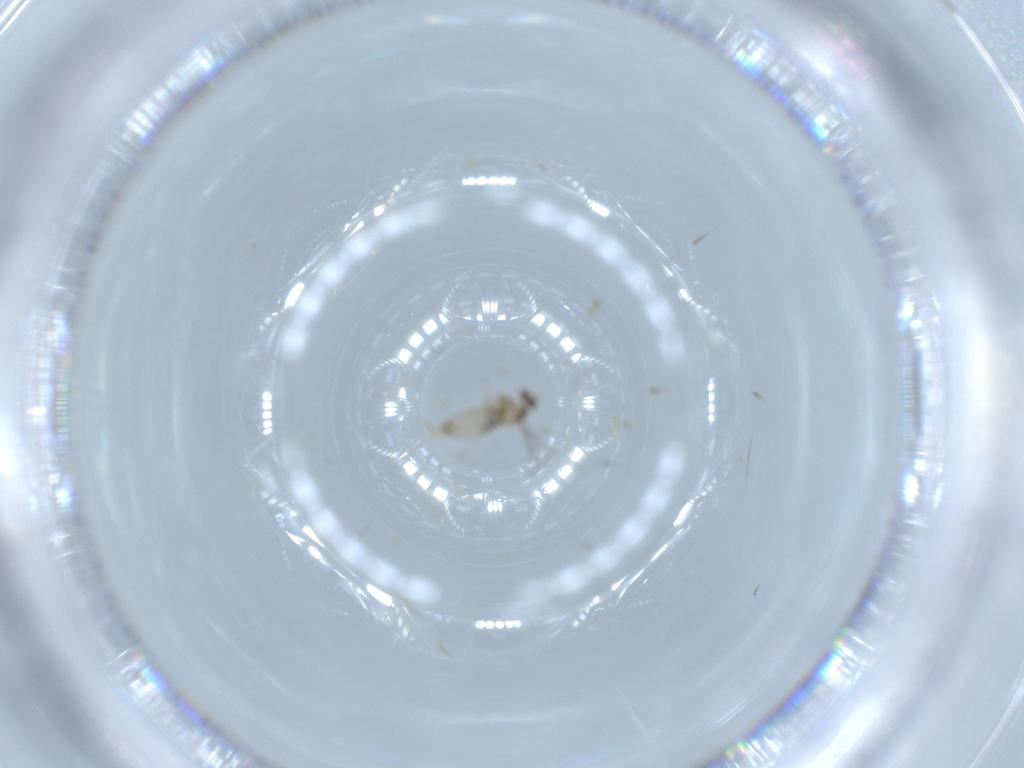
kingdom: Animalia
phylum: Arthropoda
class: Insecta
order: Diptera
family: Cecidomyiidae
